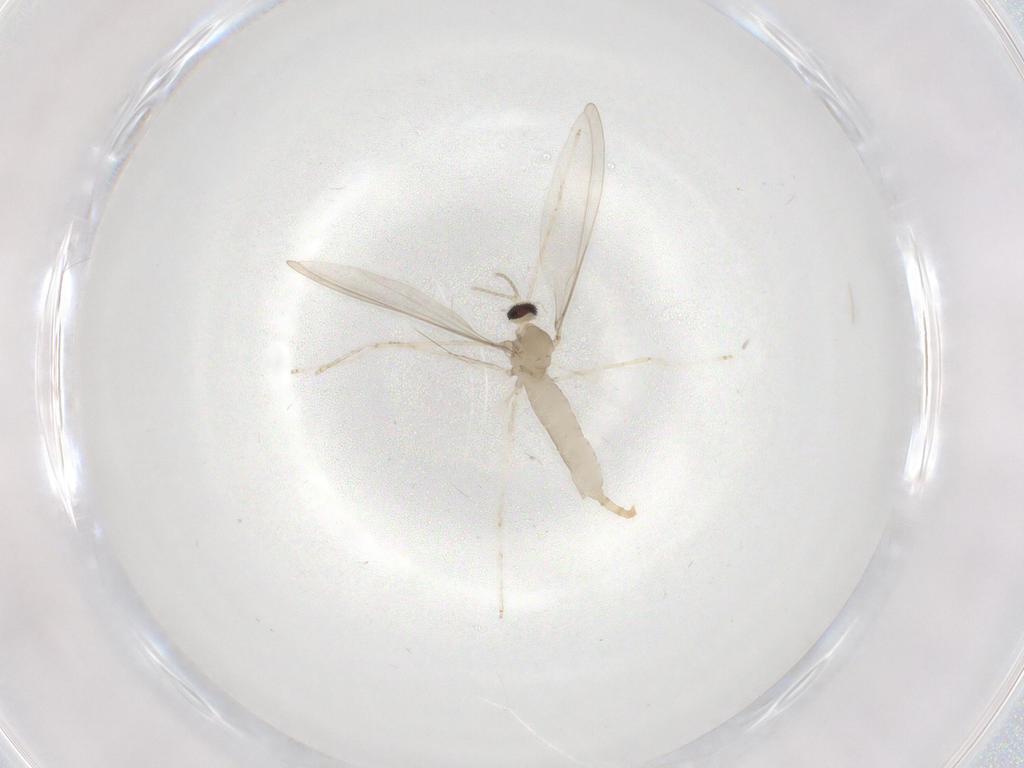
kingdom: Animalia
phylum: Arthropoda
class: Insecta
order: Diptera
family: Cecidomyiidae
